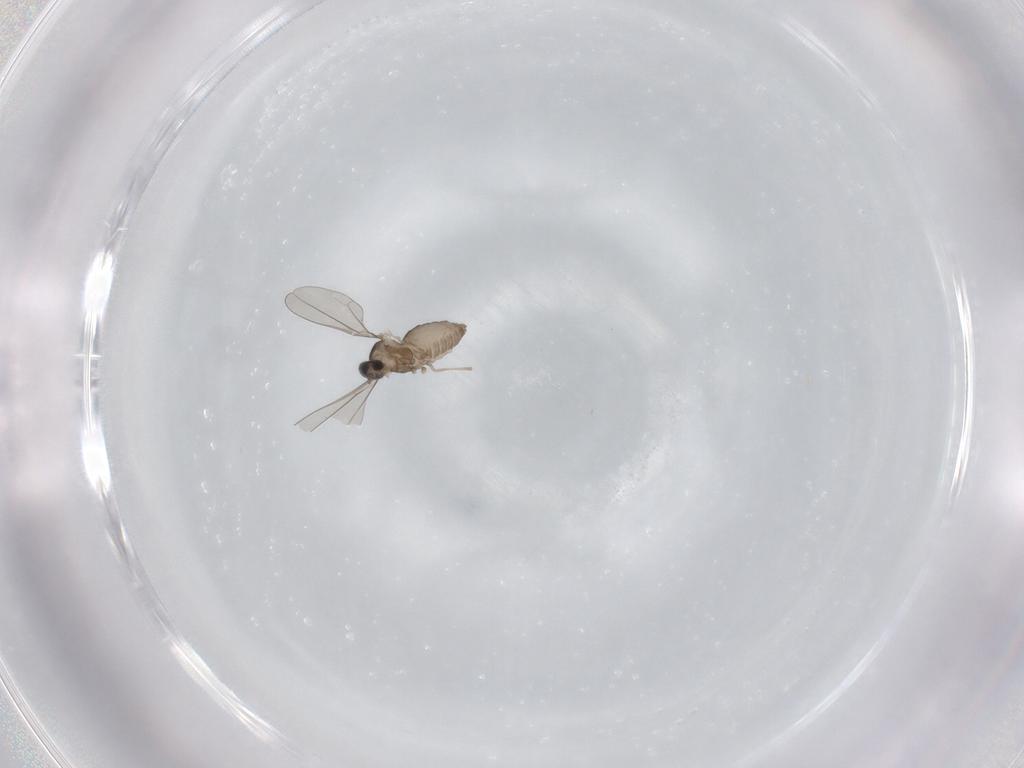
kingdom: Animalia
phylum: Arthropoda
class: Insecta
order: Diptera
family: Cecidomyiidae
